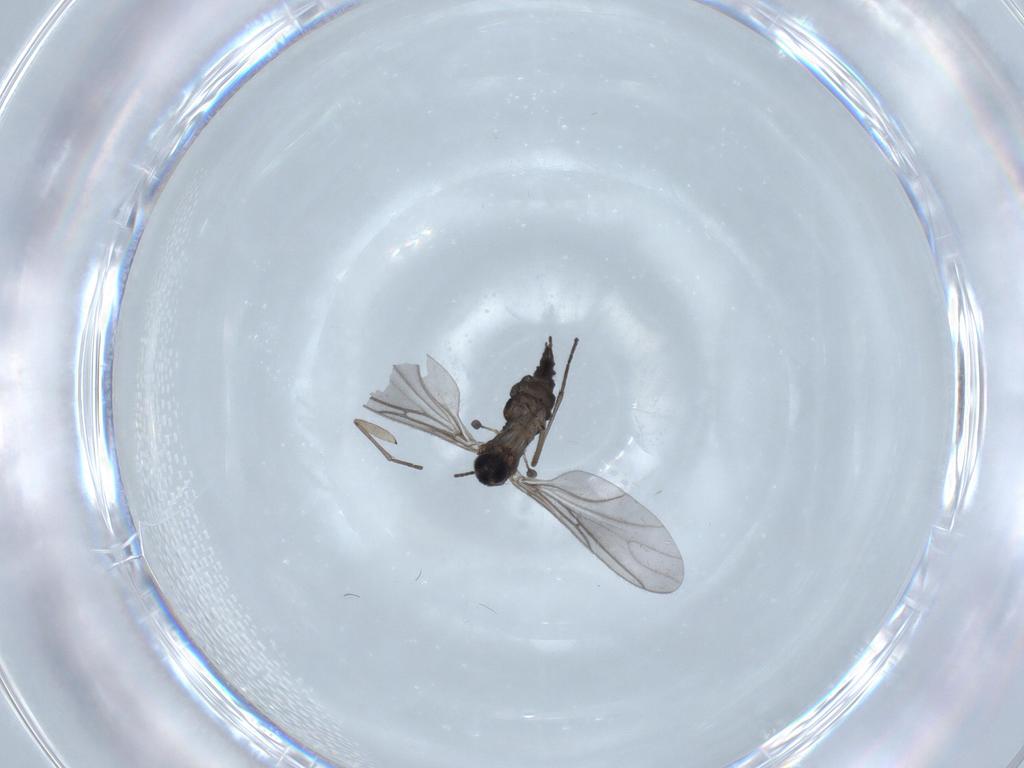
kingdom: Animalia
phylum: Arthropoda
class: Insecta
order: Diptera
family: Sciaridae
